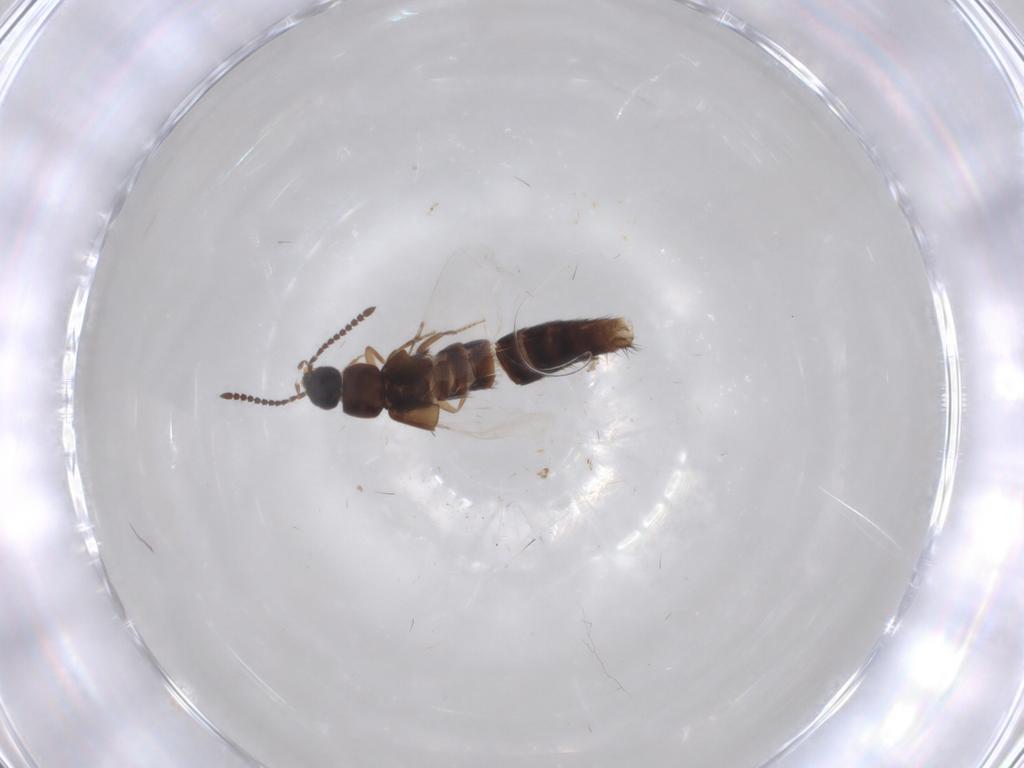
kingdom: Animalia
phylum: Arthropoda
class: Insecta
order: Coleoptera
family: Staphylinidae
